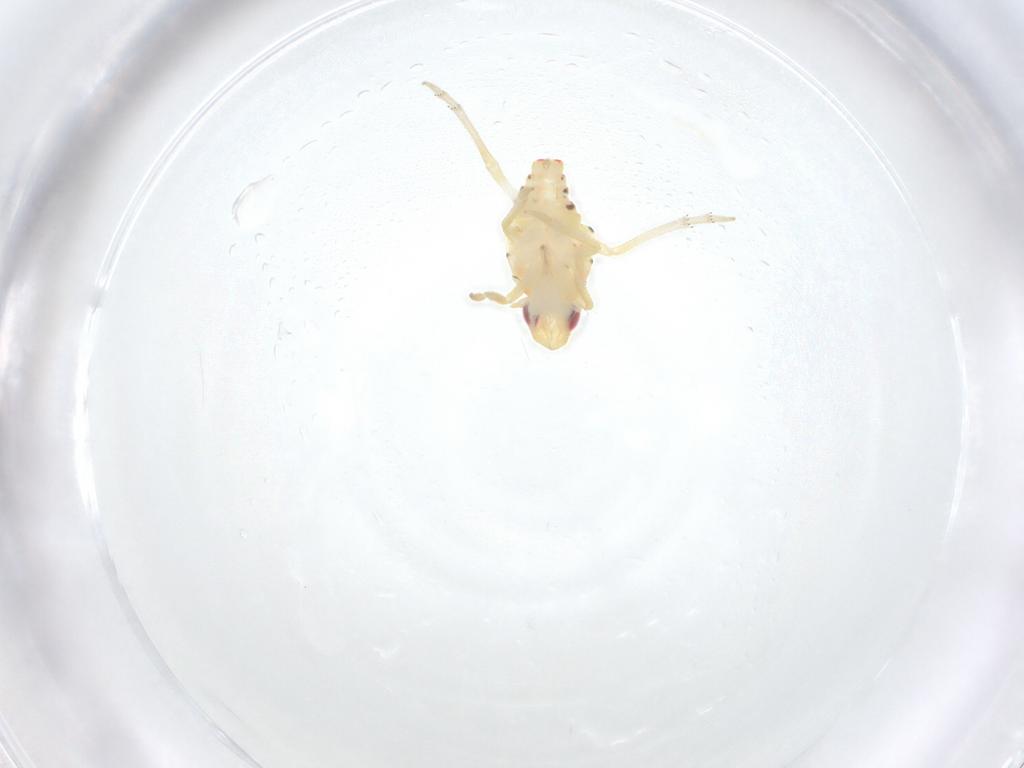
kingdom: Animalia
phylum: Arthropoda
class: Insecta
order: Hemiptera
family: Tropiduchidae
